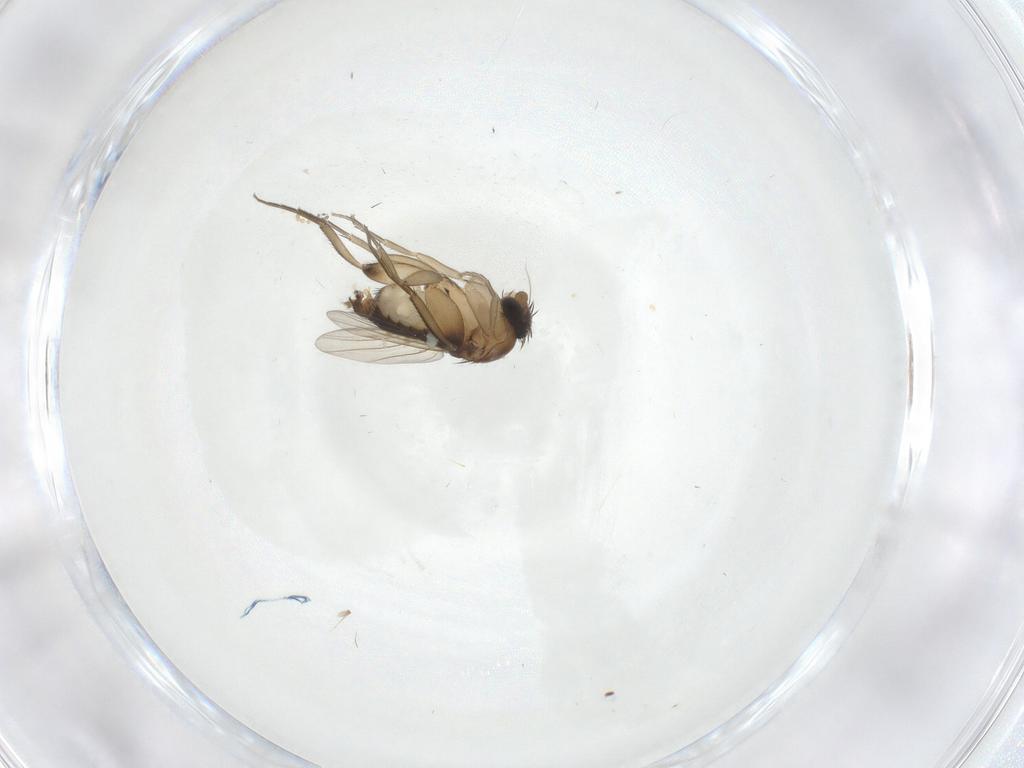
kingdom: Animalia
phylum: Arthropoda
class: Insecta
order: Diptera
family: Phoridae
